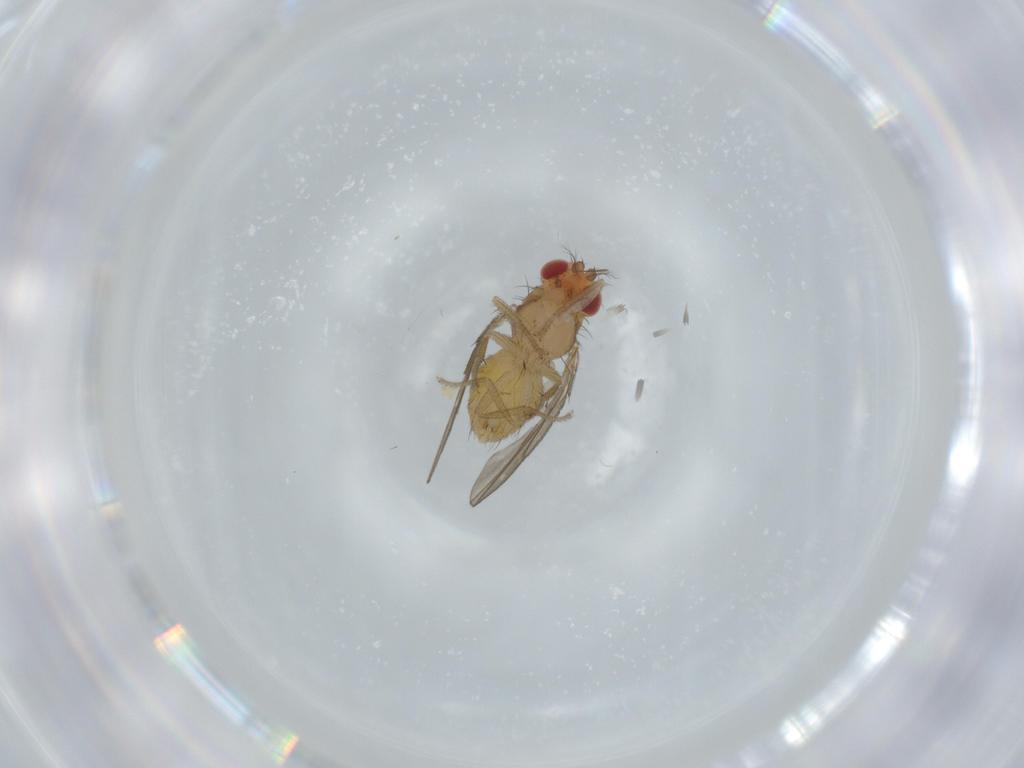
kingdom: Animalia
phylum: Arthropoda
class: Insecta
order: Diptera
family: Drosophilidae
